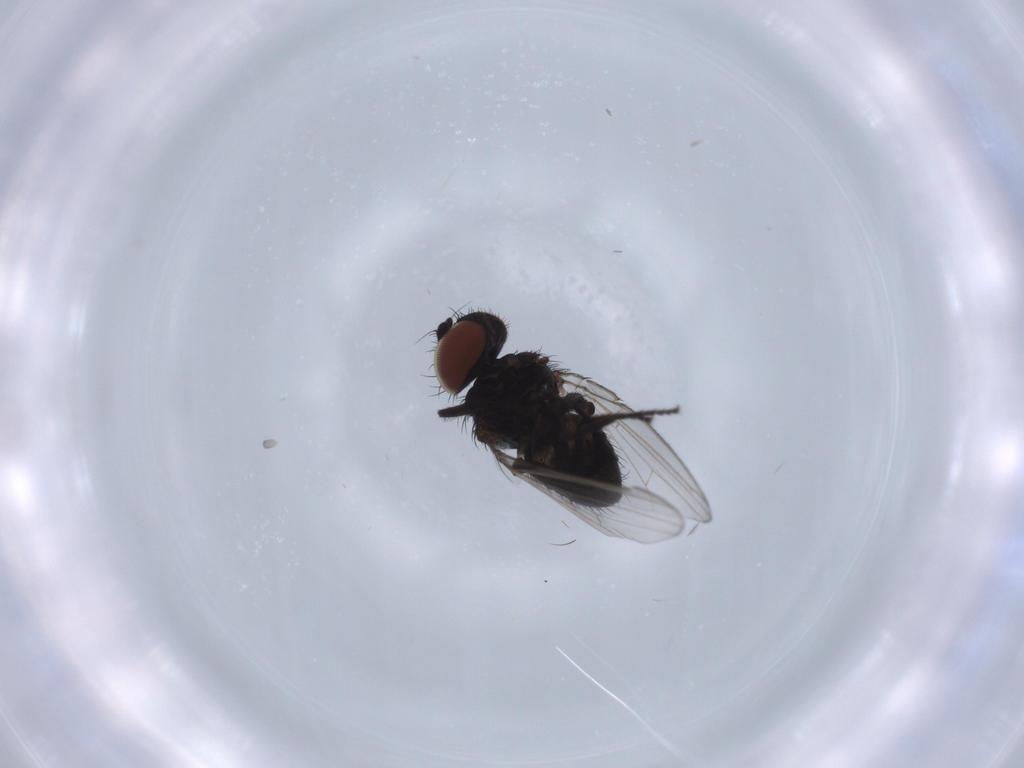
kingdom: Animalia
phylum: Arthropoda
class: Insecta
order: Diptera
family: Milichiidae
